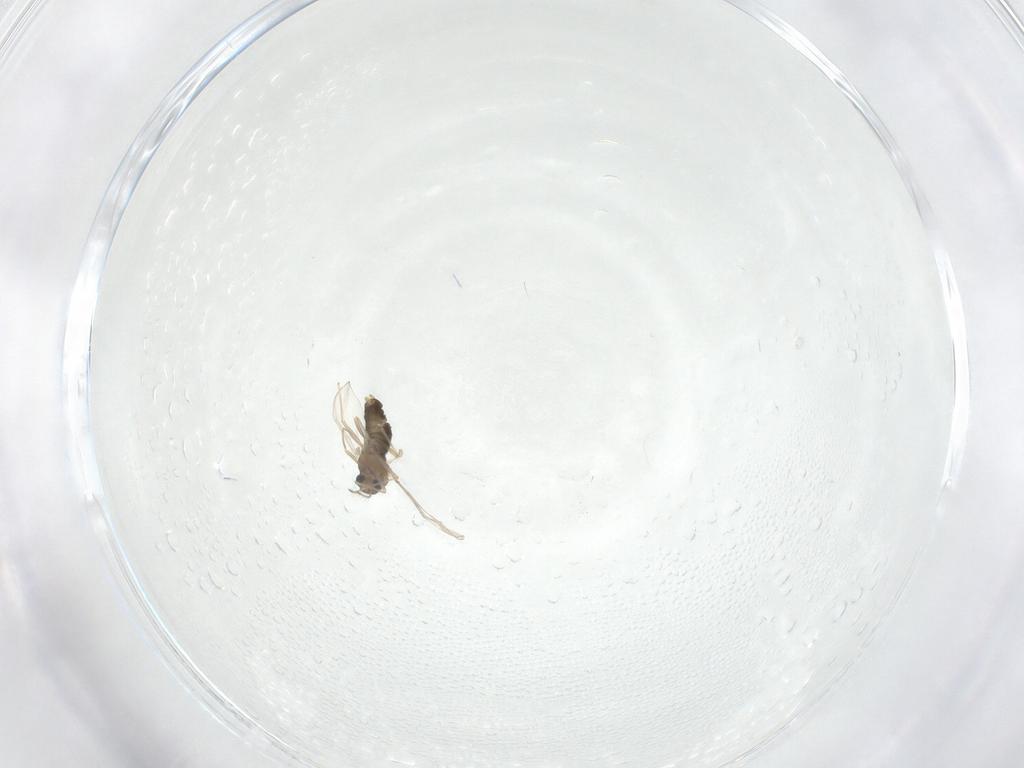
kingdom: Animalia
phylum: Arthropoda
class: Insecta
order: Diptera
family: Chironomidae
